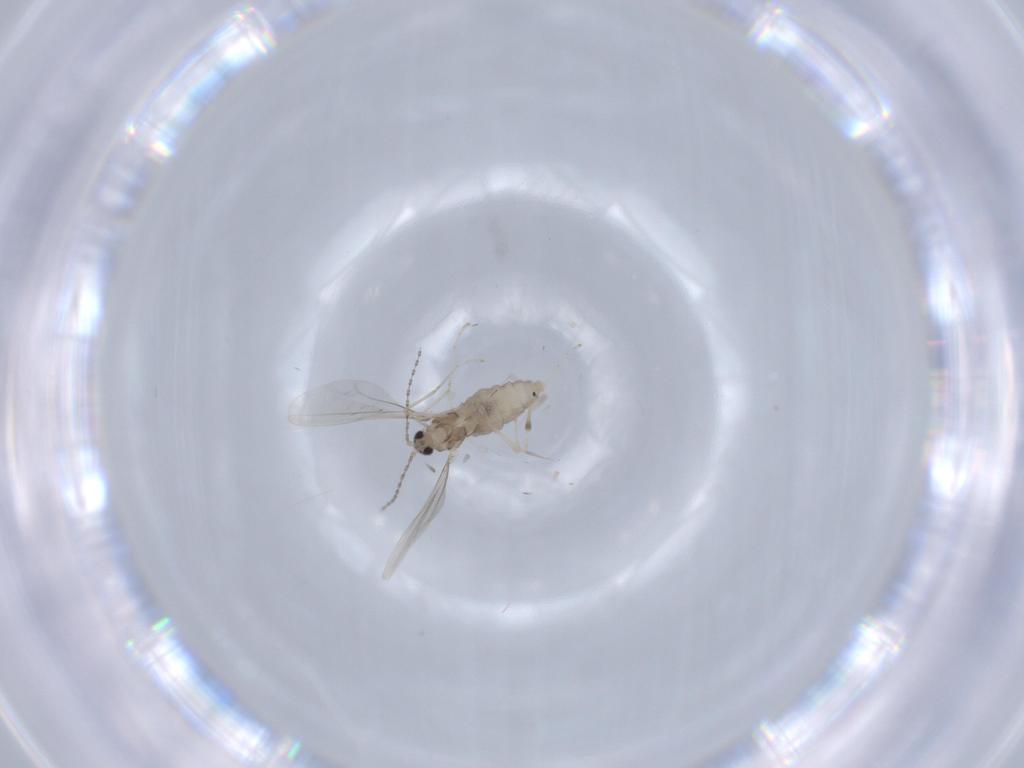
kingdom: Animalia
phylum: Arthropoda
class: Insecta
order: Diptera
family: Cecidomyiidae
